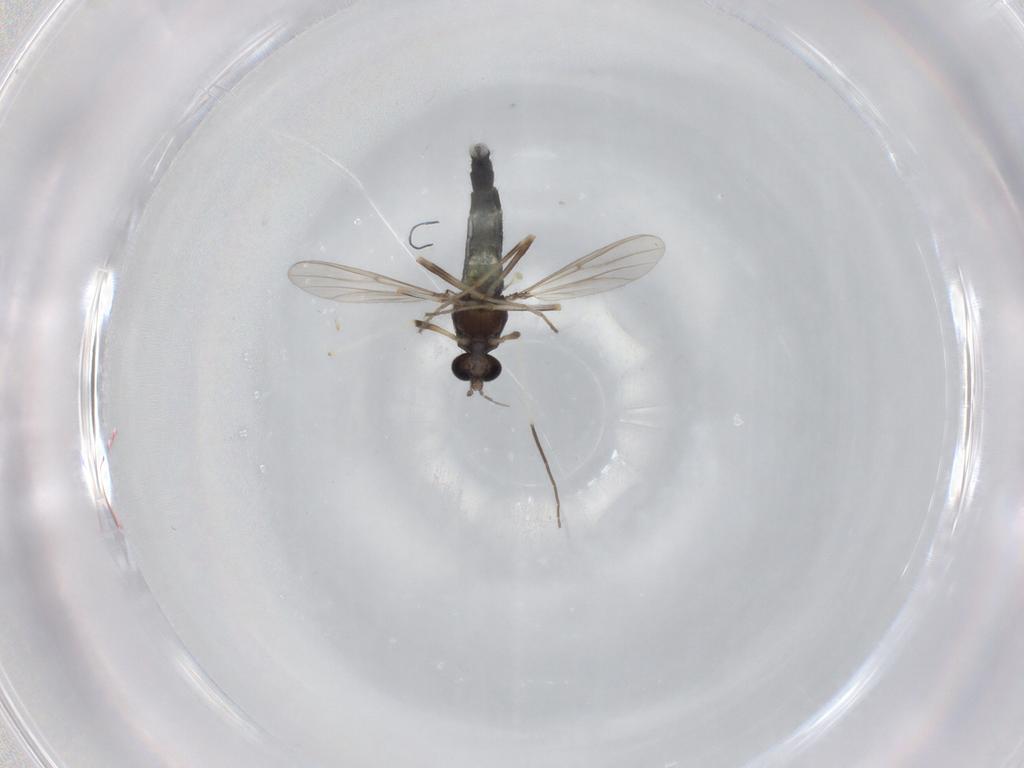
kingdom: Animalia
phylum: Arthropoda
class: Insecta
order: Diptera
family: Chironomidae
